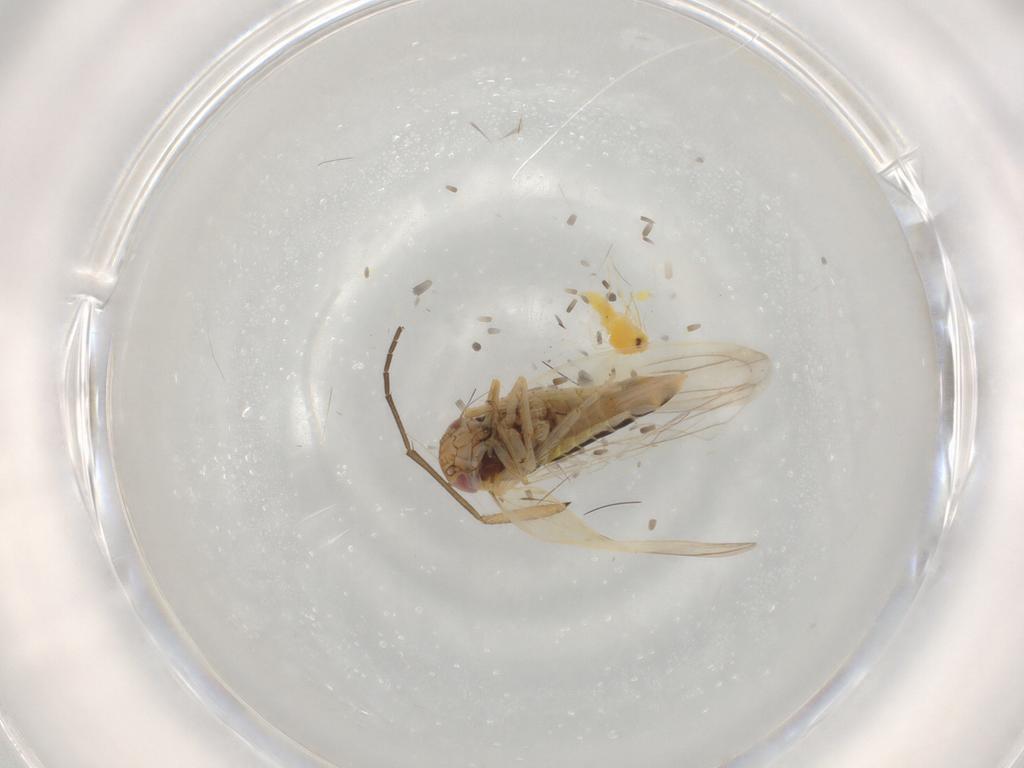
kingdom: Animalia
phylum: Arthropoda
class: Insecta
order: Hemiptera
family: Cicadellidae
